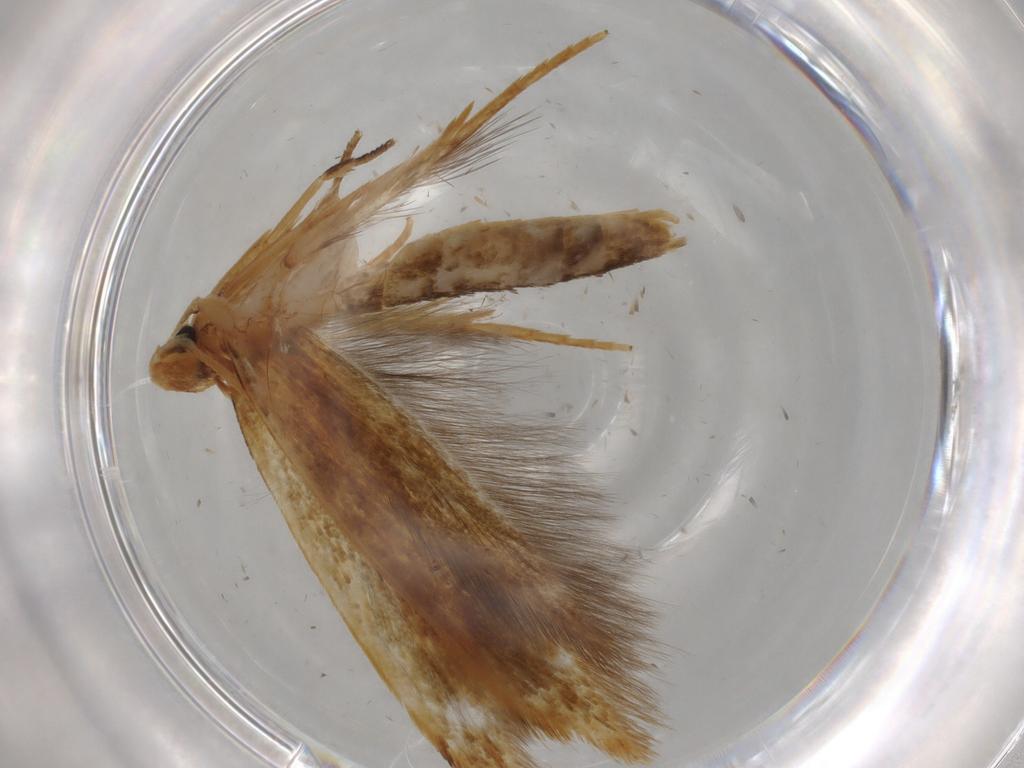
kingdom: Animalia
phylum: Arthropoda
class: Insecta
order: Lepidoptera
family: Tineidae
